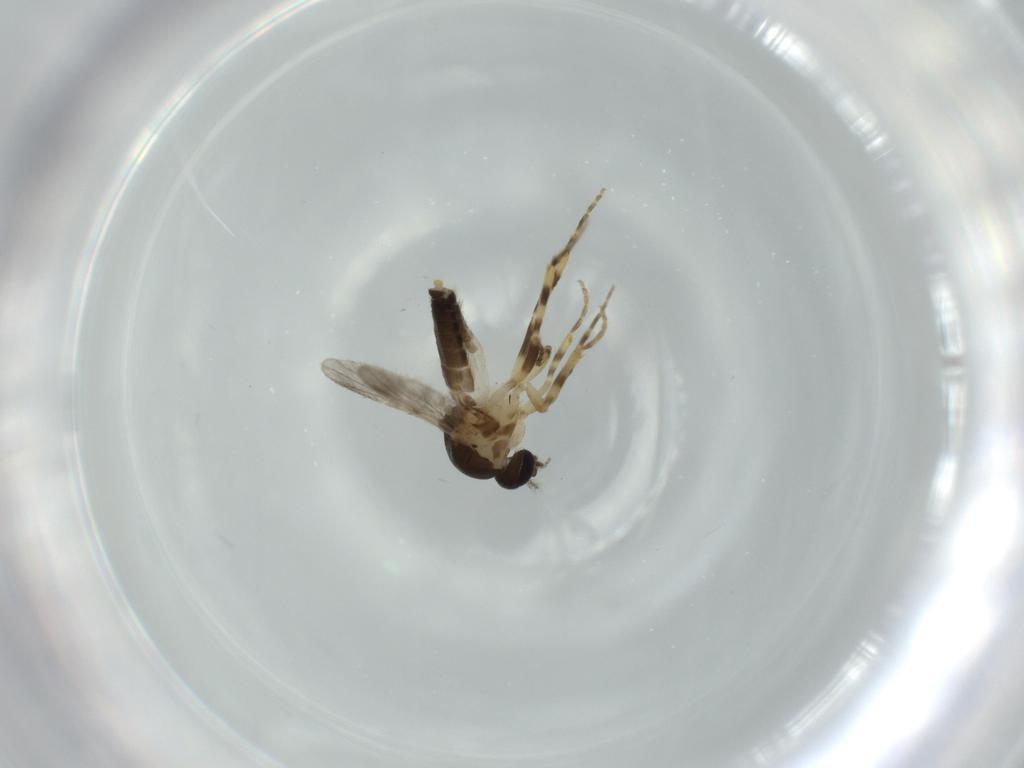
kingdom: Animalia
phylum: Arthropoda
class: Insecta
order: Diptera
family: Ceratopogonidae
